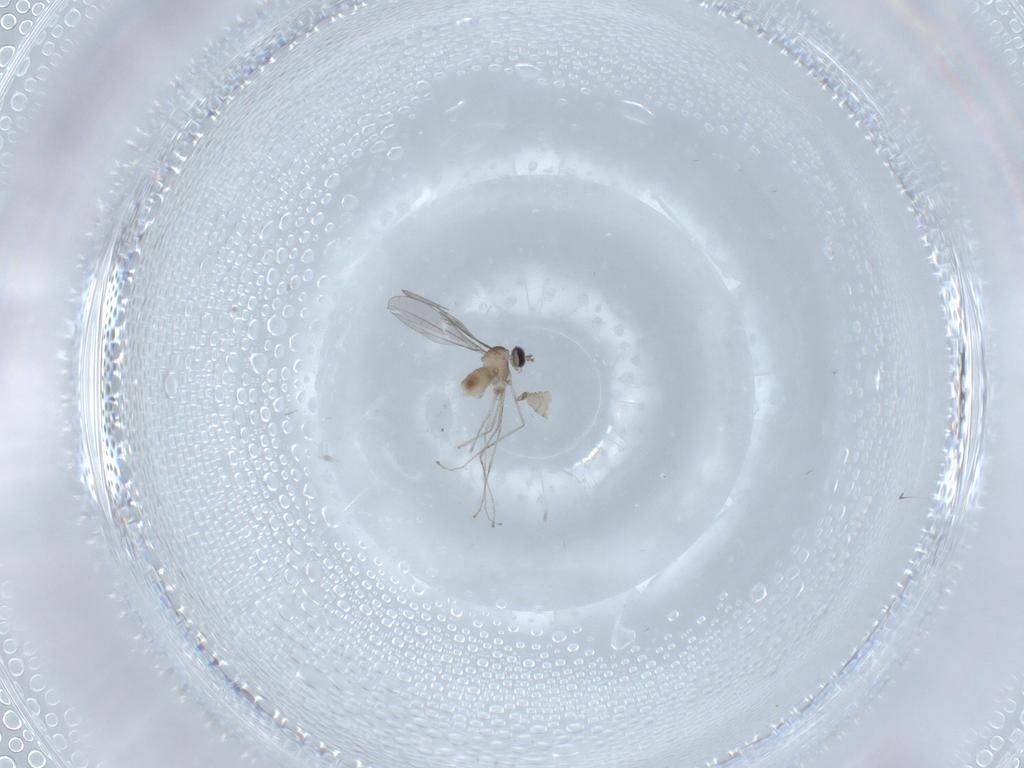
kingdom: Animalia
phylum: Arthropoda
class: Insecta
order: Diptera
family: Cecidomyiidae
